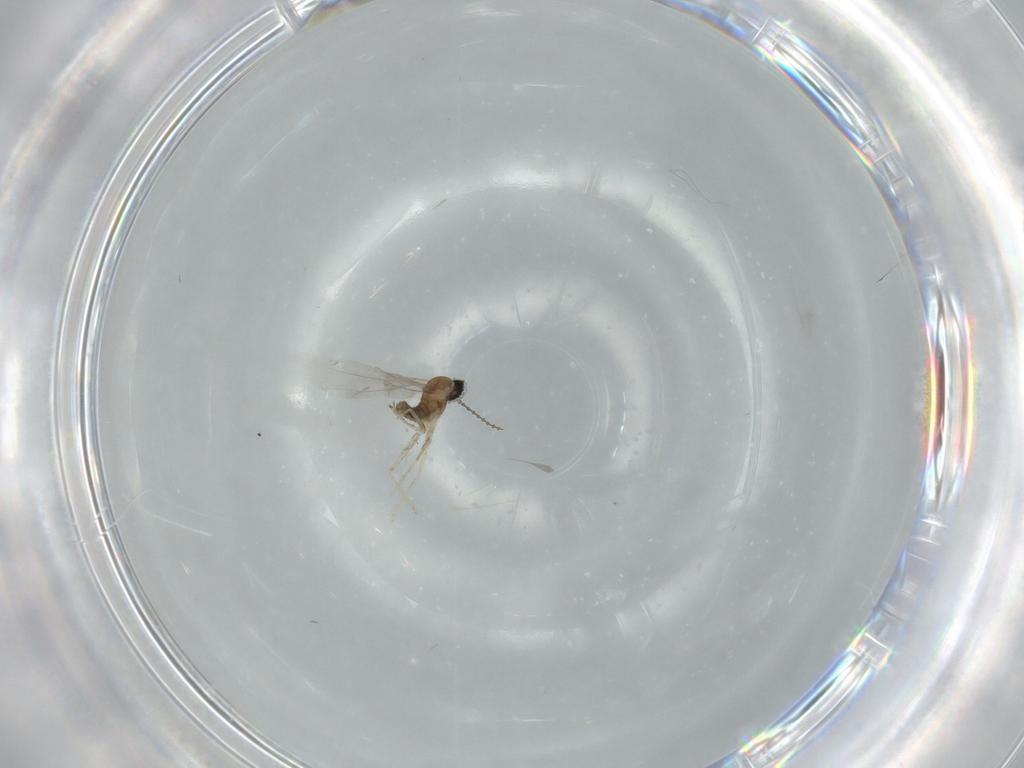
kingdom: Animalia
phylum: Arthropoda
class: Insecta
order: Diptera
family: Cecidomyiidae
